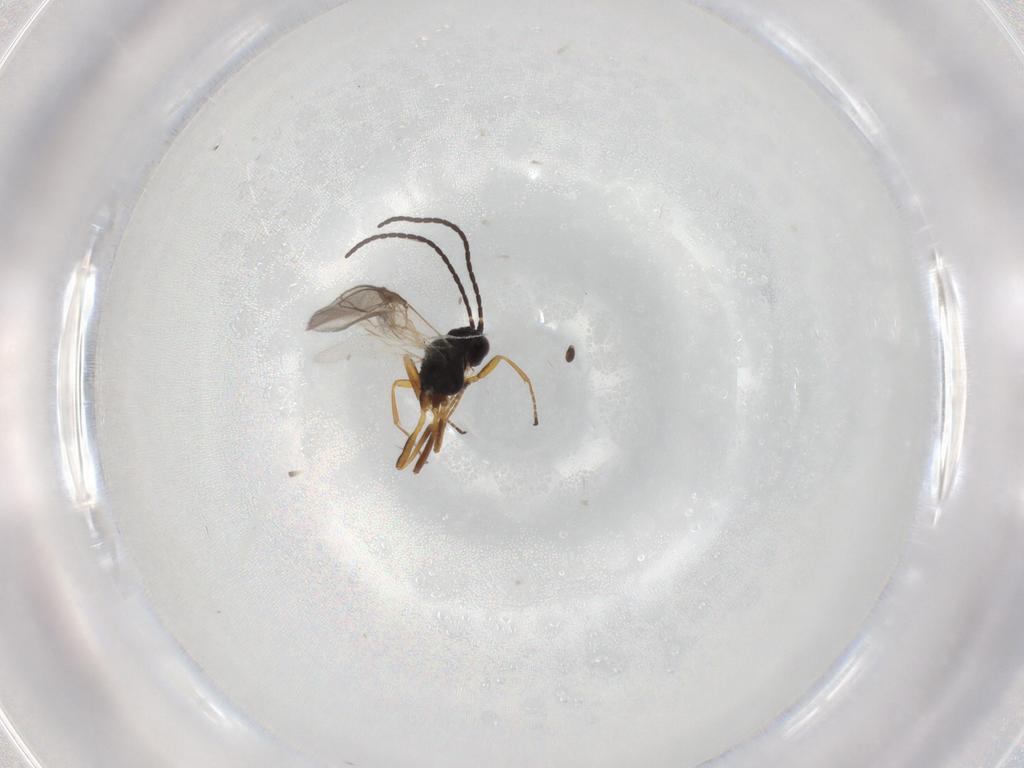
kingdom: Animalia
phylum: Arthropoda
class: Insecta
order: Hymenoptera
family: Braconidae
